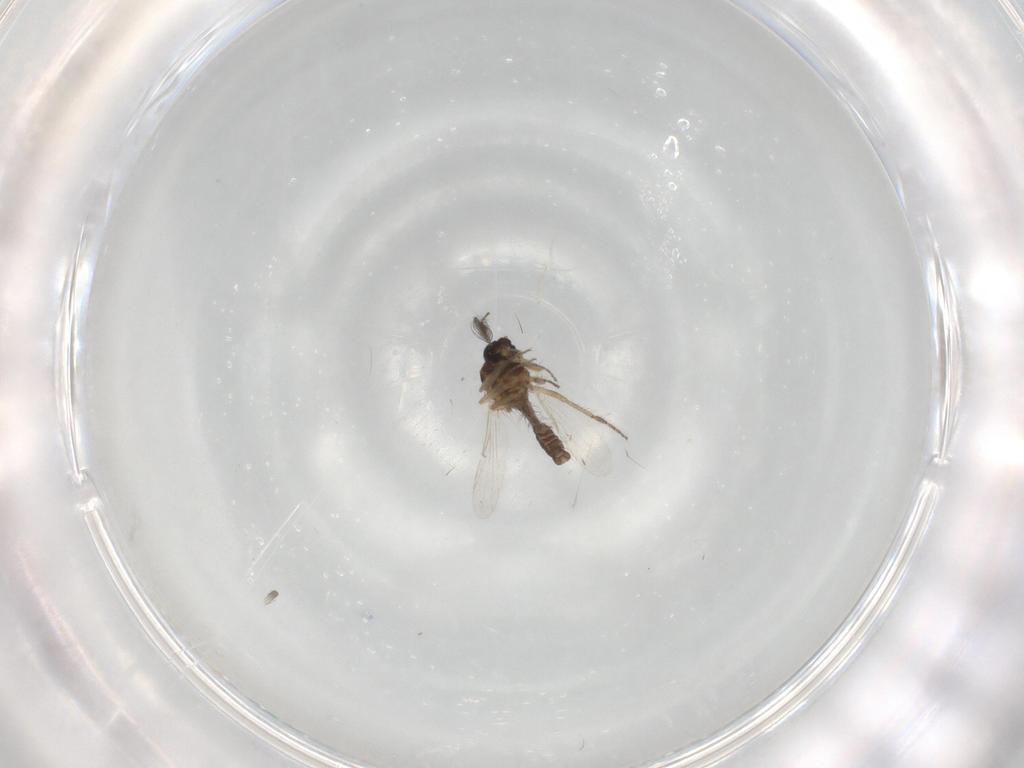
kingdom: Animalia
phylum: Arthropoda
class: Insecta
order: Diptera
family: Ceratopogonidae
